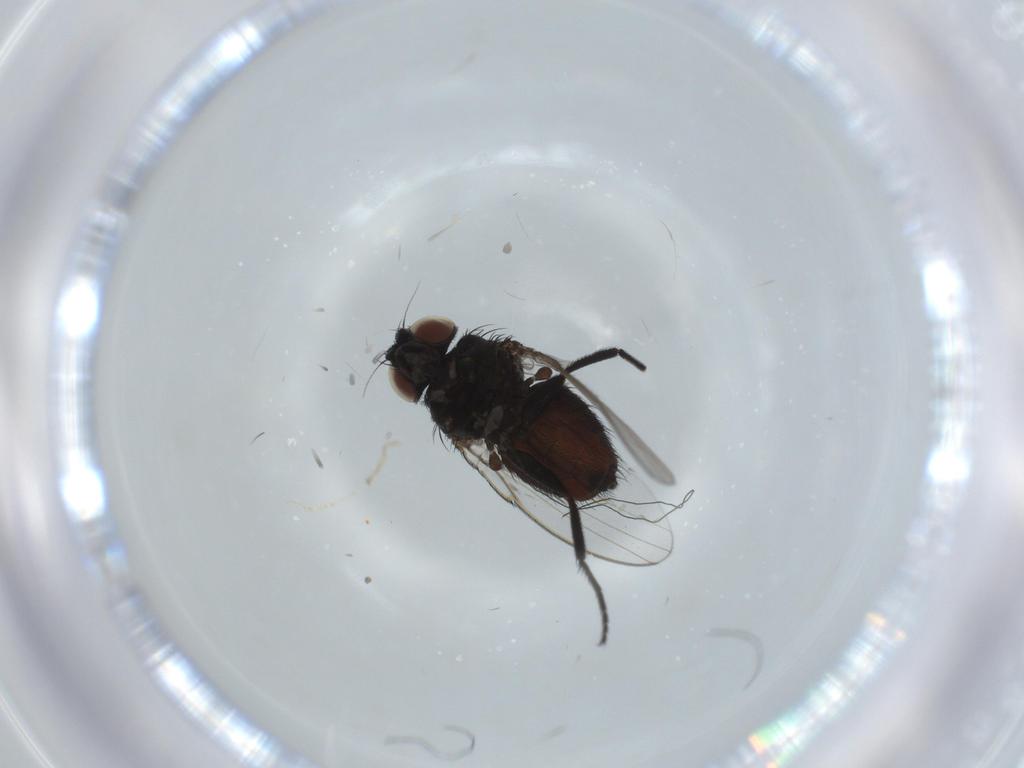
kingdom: Animalia
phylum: Arthropoda
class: Insecta
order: Diptera
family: Milichiidae
